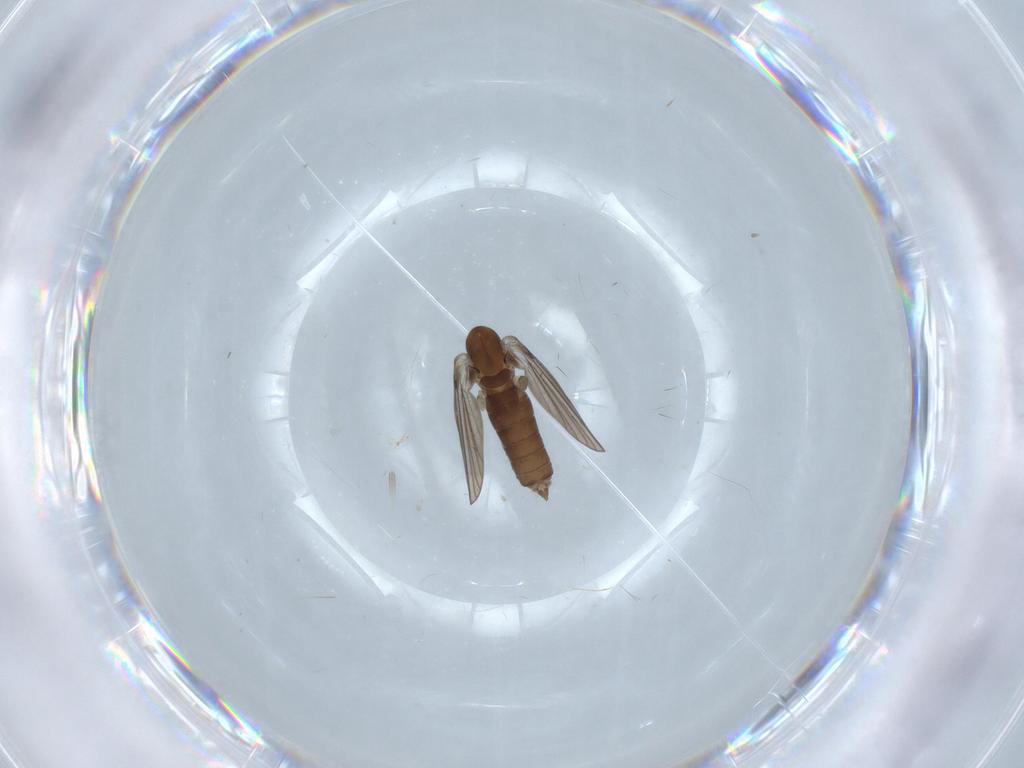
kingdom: Animalia
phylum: Arthropoda
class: Insecta
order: Diptera
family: Psychodidae
